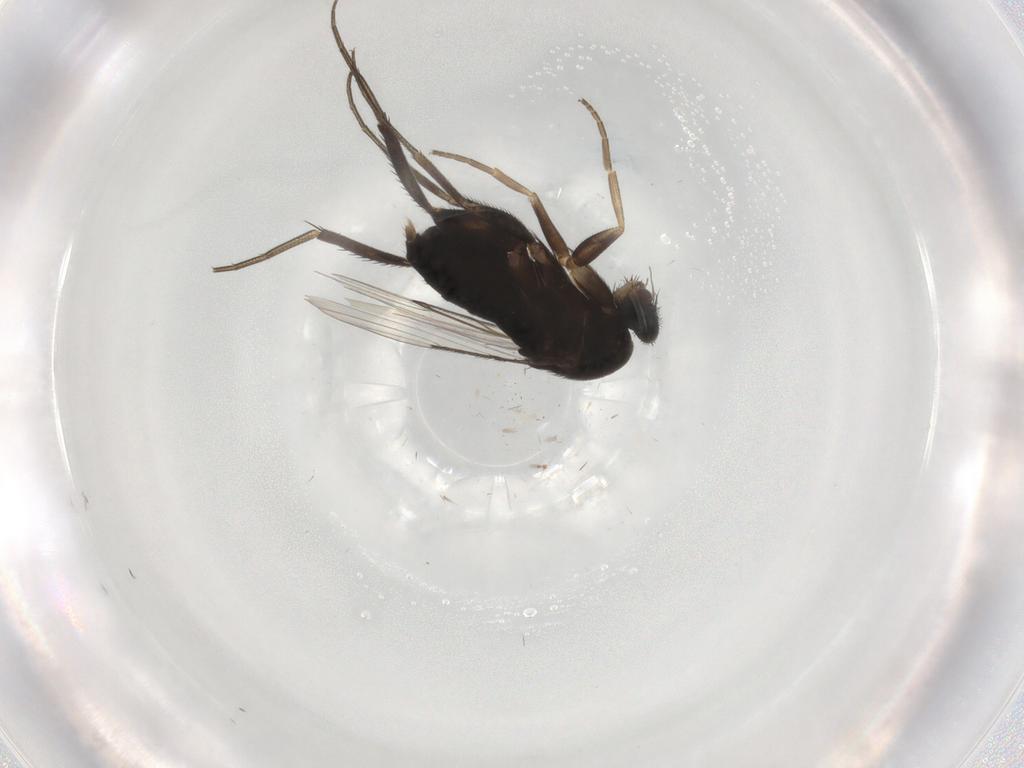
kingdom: Animalia
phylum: Arthropoda
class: Insecta
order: Diptera
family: Phoridae
